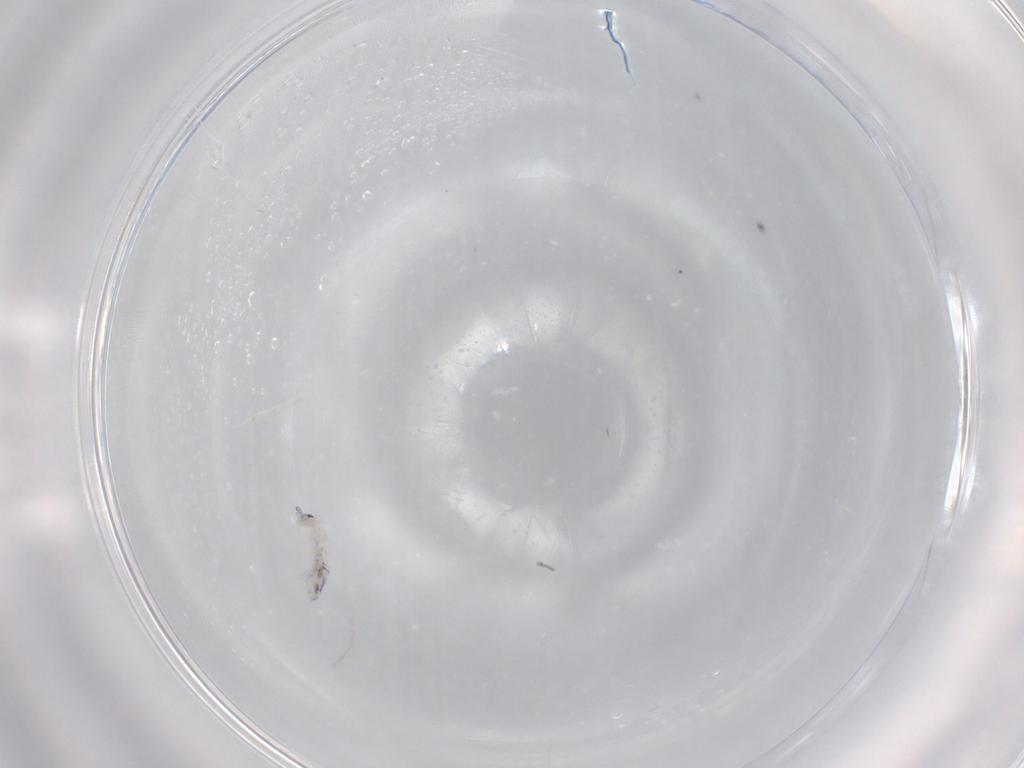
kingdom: Animalia
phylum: Arthropoda
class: Collembola
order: Entomobryomorpha
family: Entomobryidae
